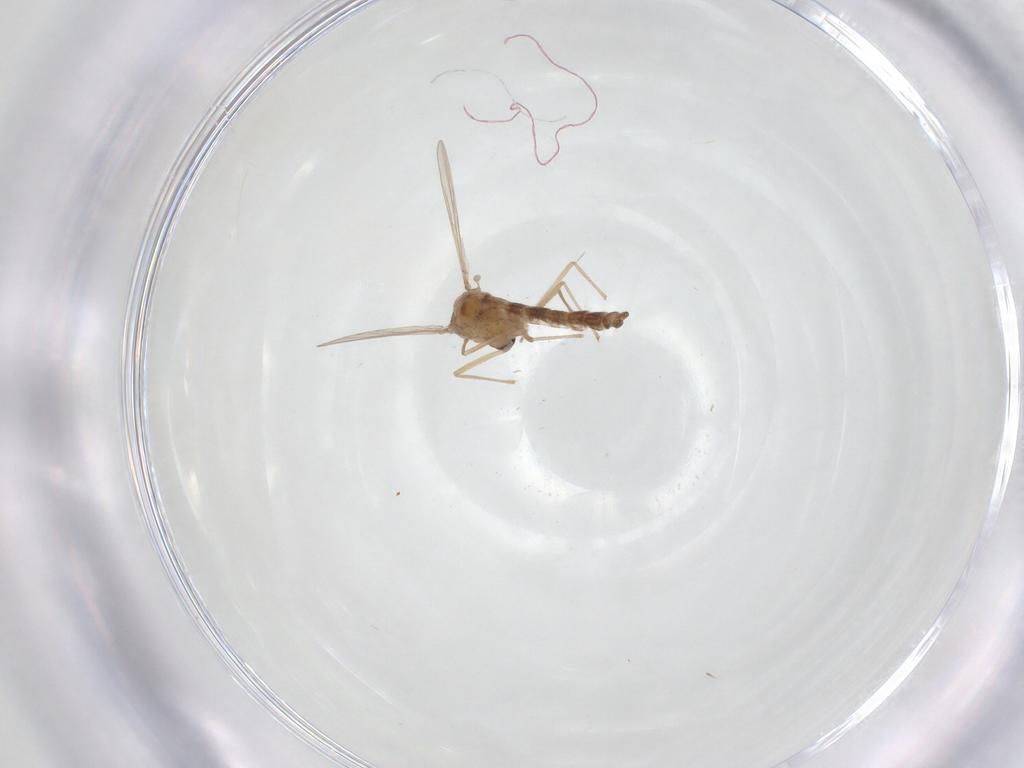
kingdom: Animalia
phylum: Arthropoda
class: Insecta
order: Diptera
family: Chironomidae
